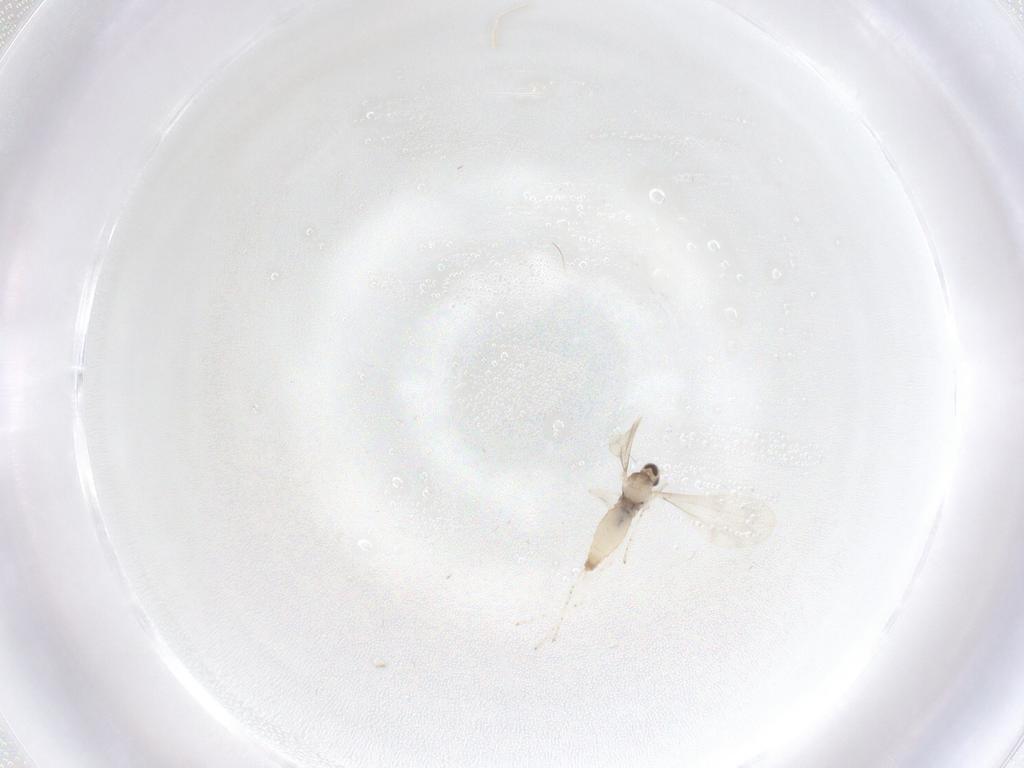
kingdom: Animalia
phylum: Arthropoda
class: Insecta
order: Diptera
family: Cecidomyiidae
